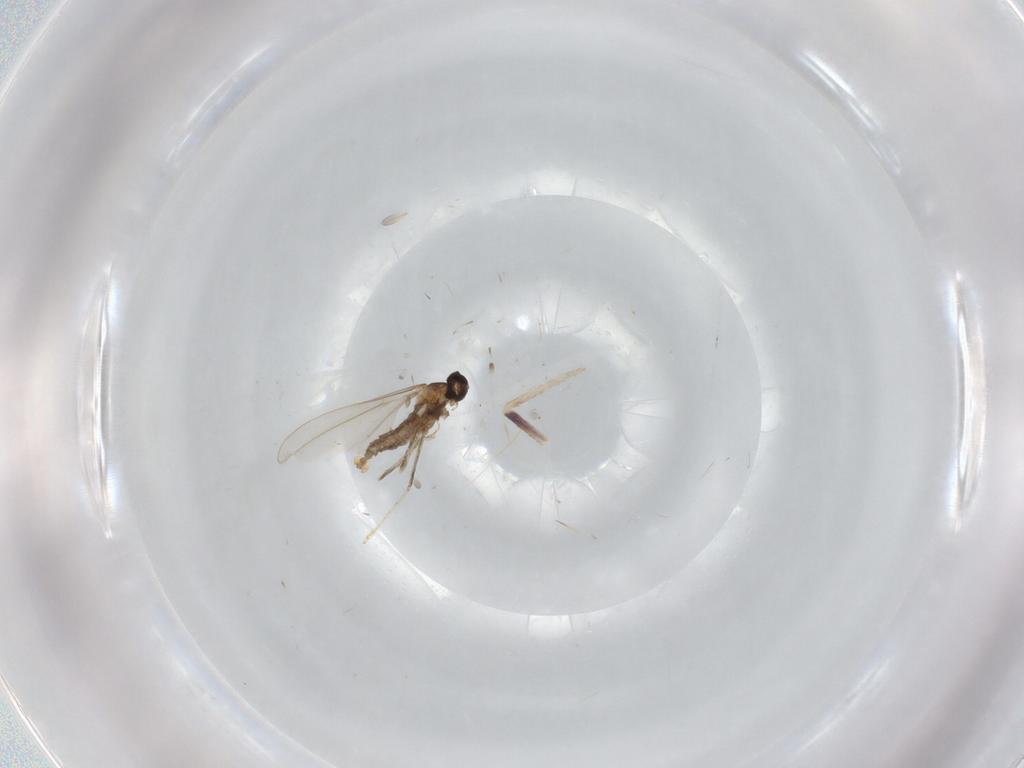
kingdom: Animalia
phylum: Arthropoda
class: Insecta
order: Diptera
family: Cecidomyiidae
